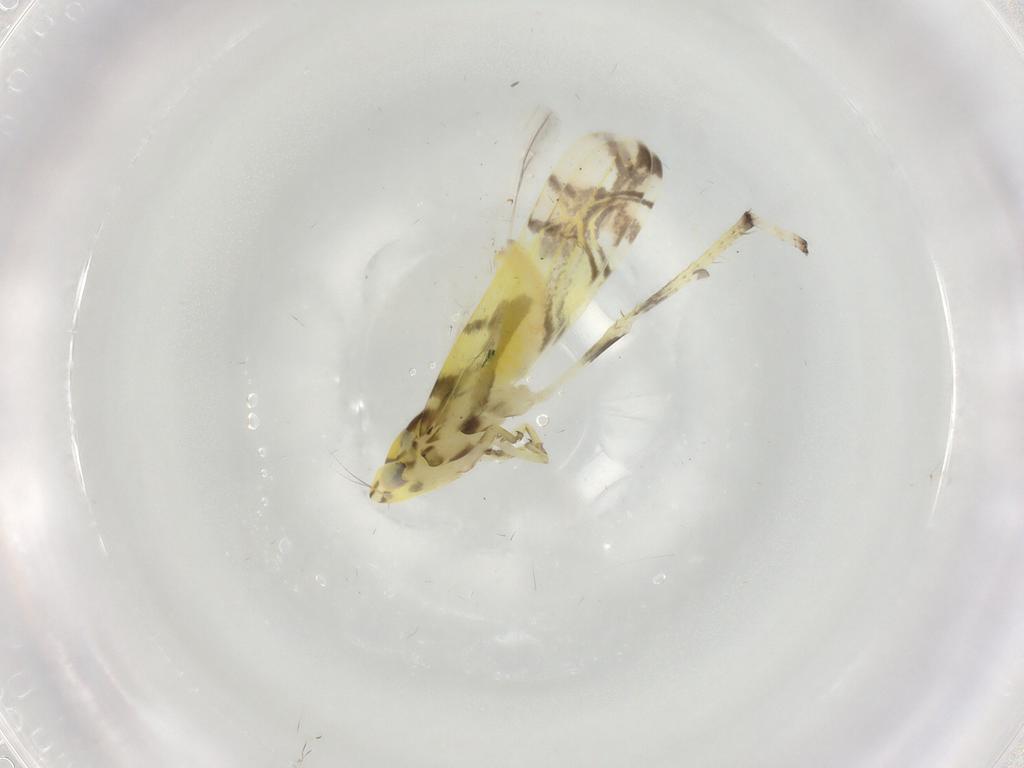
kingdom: Animalia
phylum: Arthropoda
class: Insecta
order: Hemiptera
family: Cicadellidae
